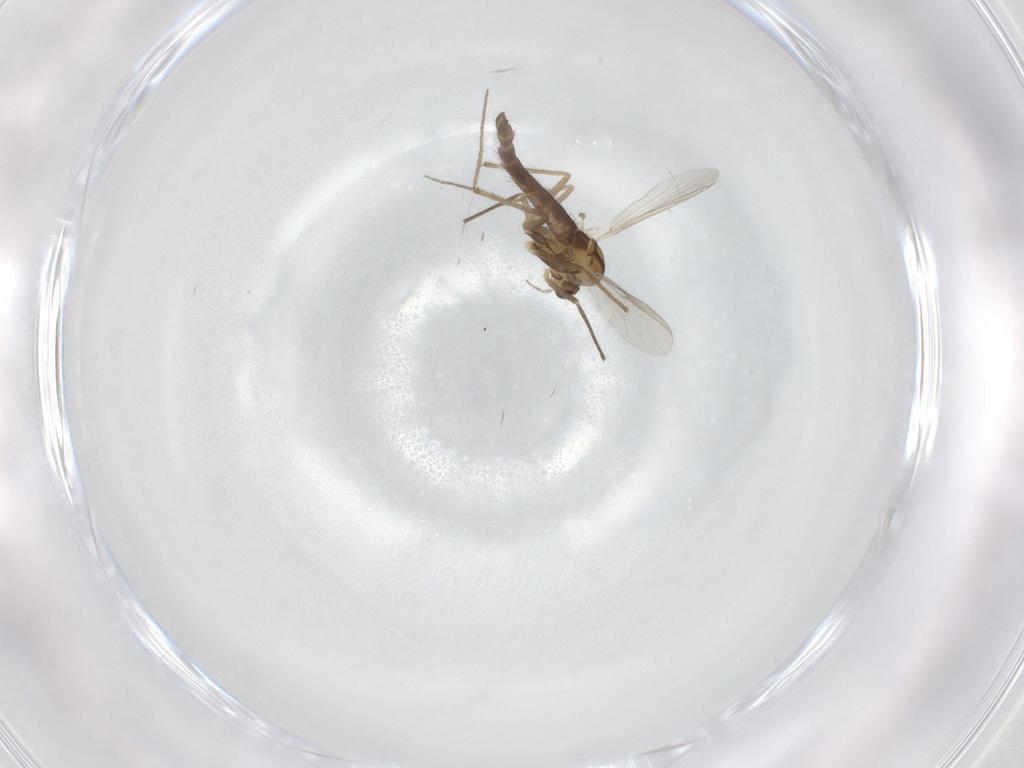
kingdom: Animalia
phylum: Arthropoda
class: Insecta
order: Diptera
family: Chironomidae
